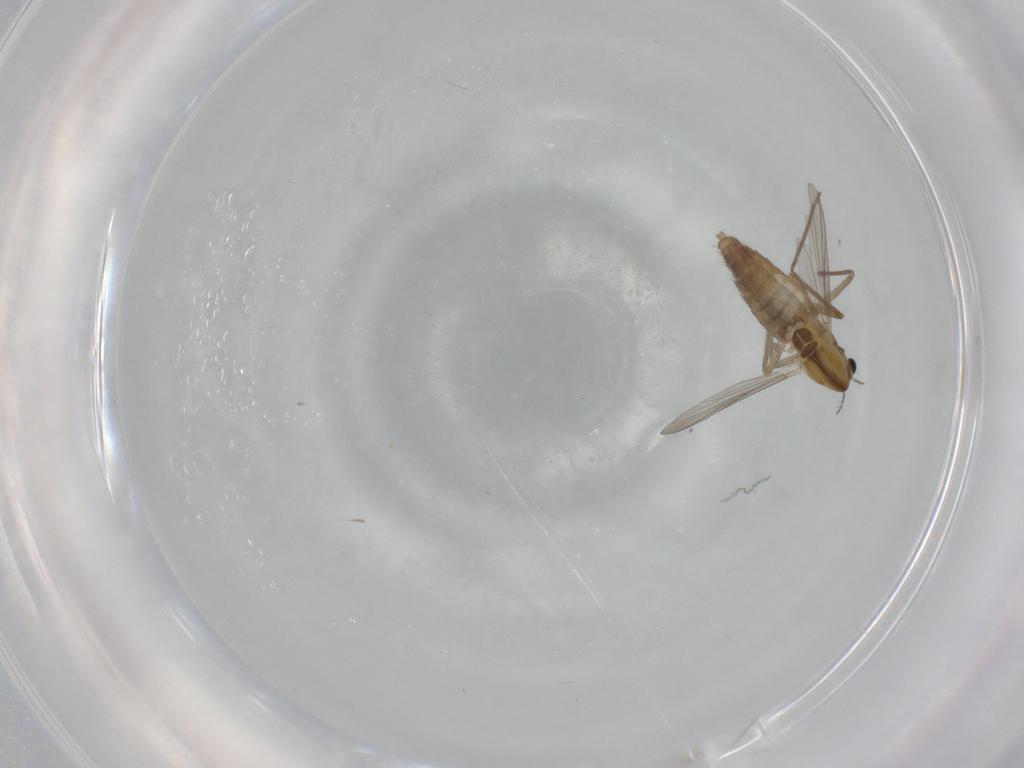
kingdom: Animalia
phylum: Arthropoda
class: Insecta
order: Diptera
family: Chironomidae
